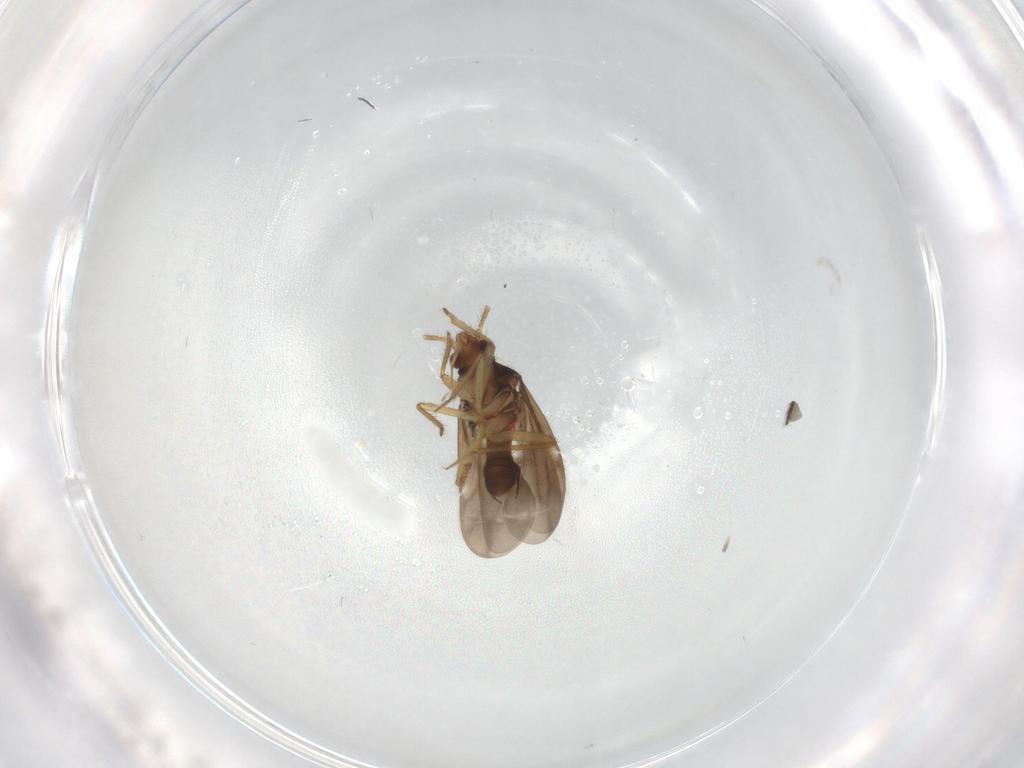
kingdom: Animalia
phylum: Arthropoda
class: Insecta
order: Hemiptera
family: Ceratocombidae
